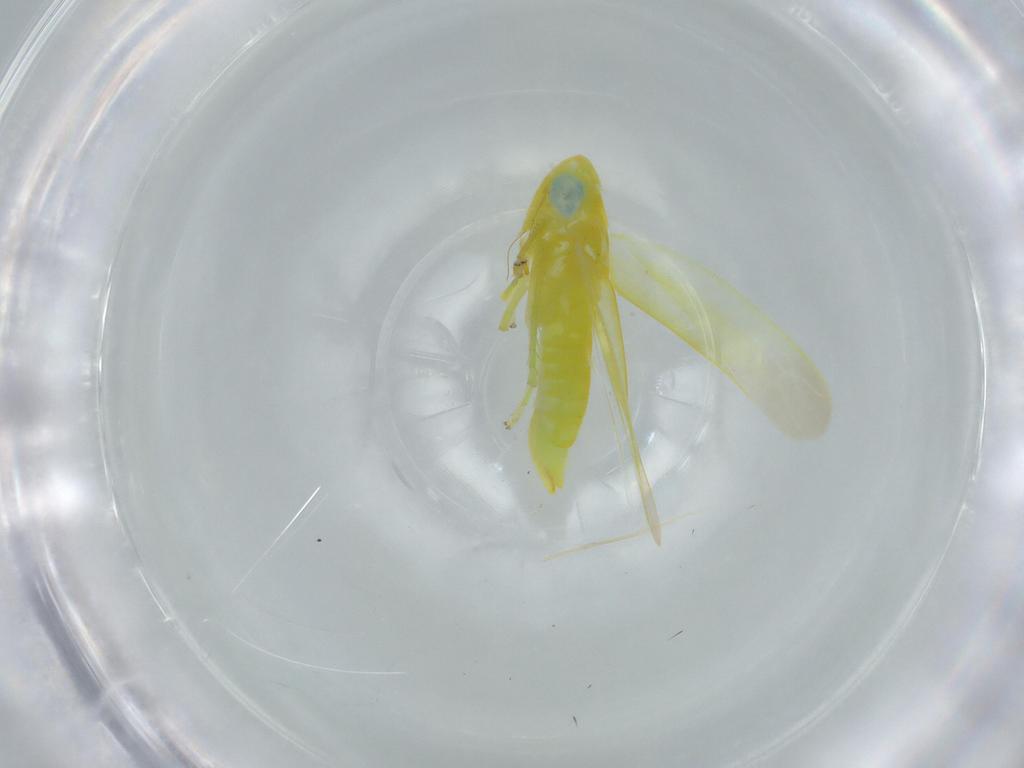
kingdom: Animalia
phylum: Arthropoda
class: Insecta
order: Hemiptera
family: Cicadellidae
